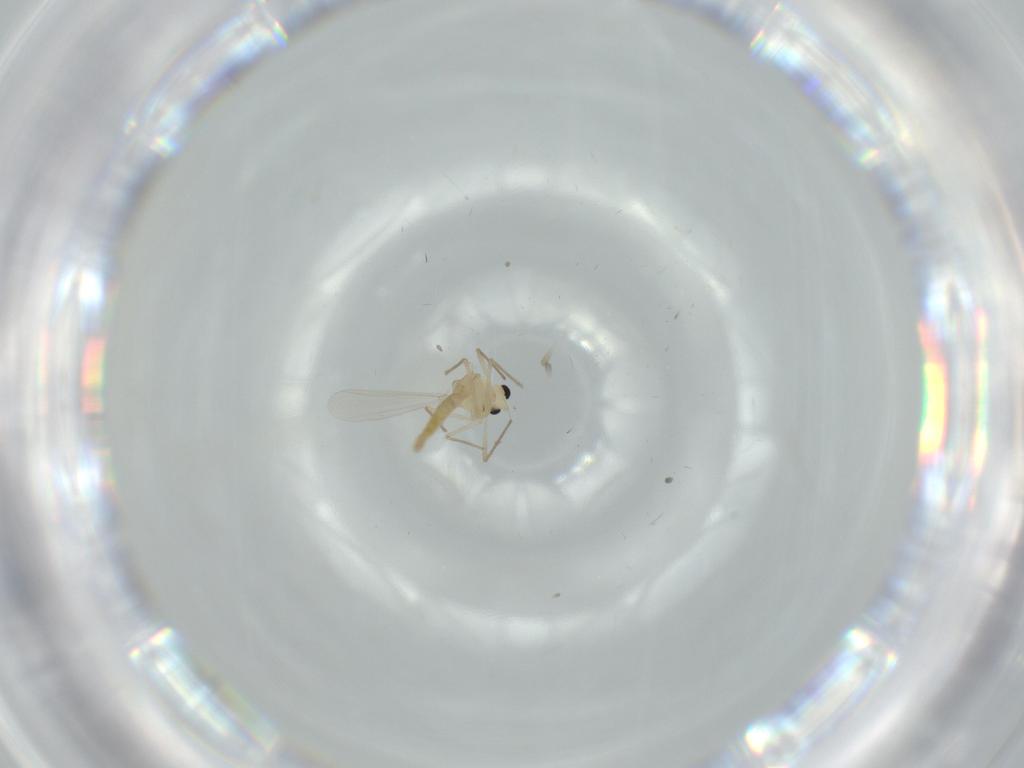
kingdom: Animalia
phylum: Arthropoda
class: Insecta
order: Diptera
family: Chironomidae
